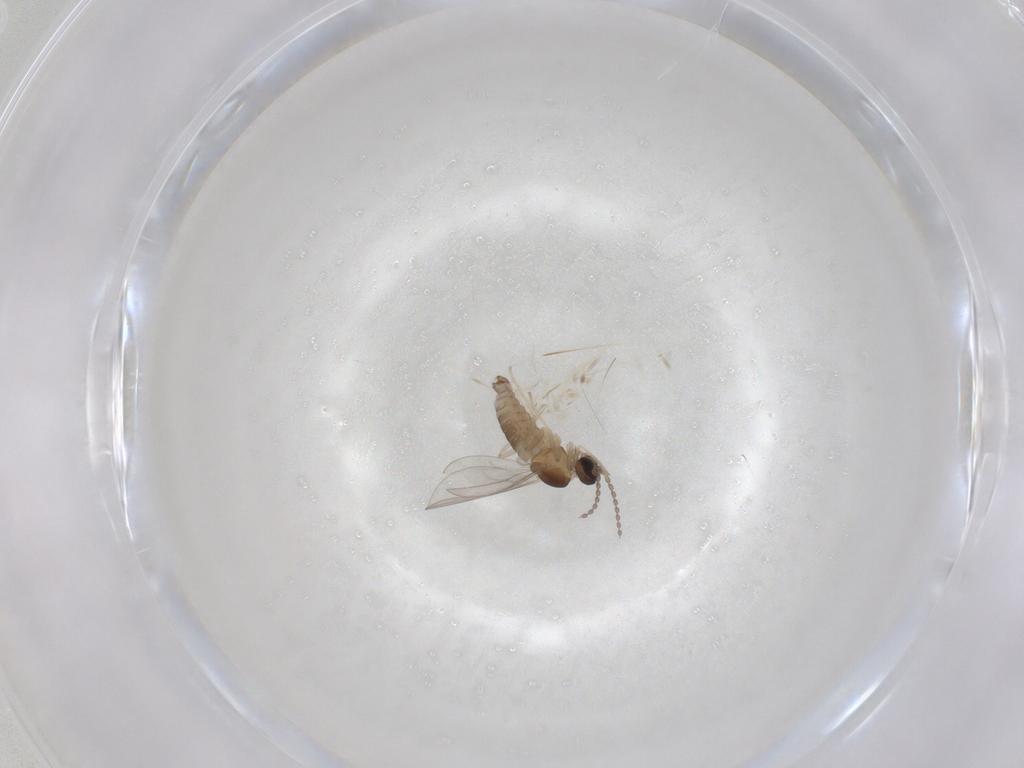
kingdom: Animalia
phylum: Arthropoda
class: Insecta
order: Diptera
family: Cecidomyiidae
